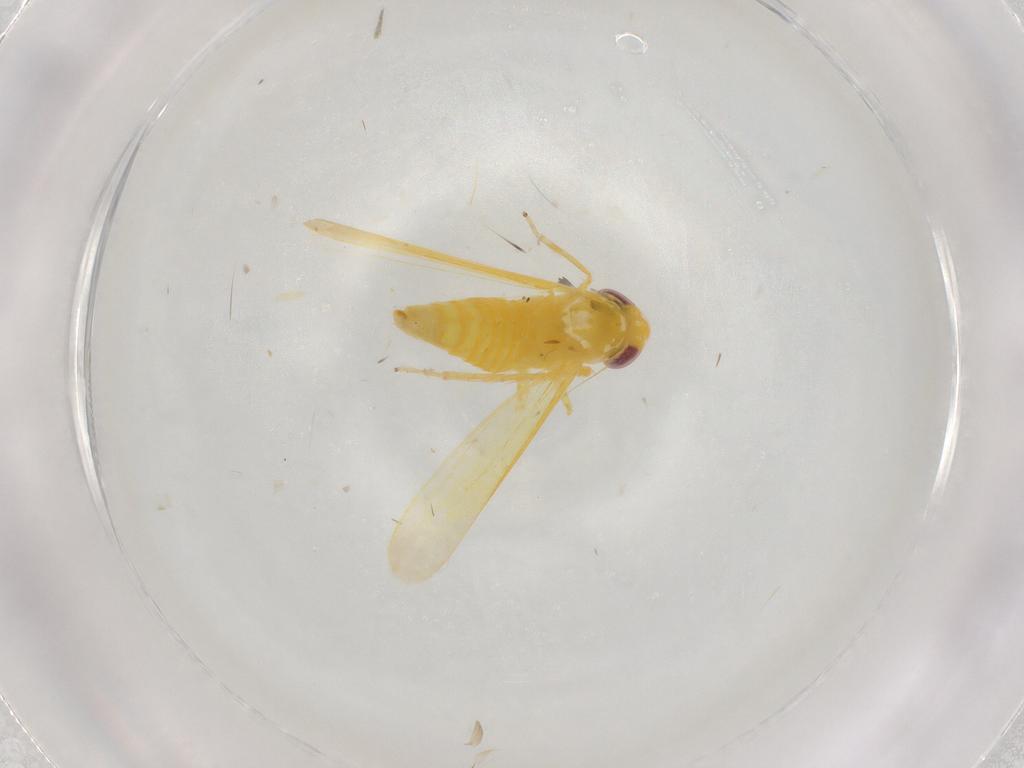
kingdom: Animalia
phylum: Arthropoda
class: Insecta
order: Hemiptera
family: Cicadellidae
